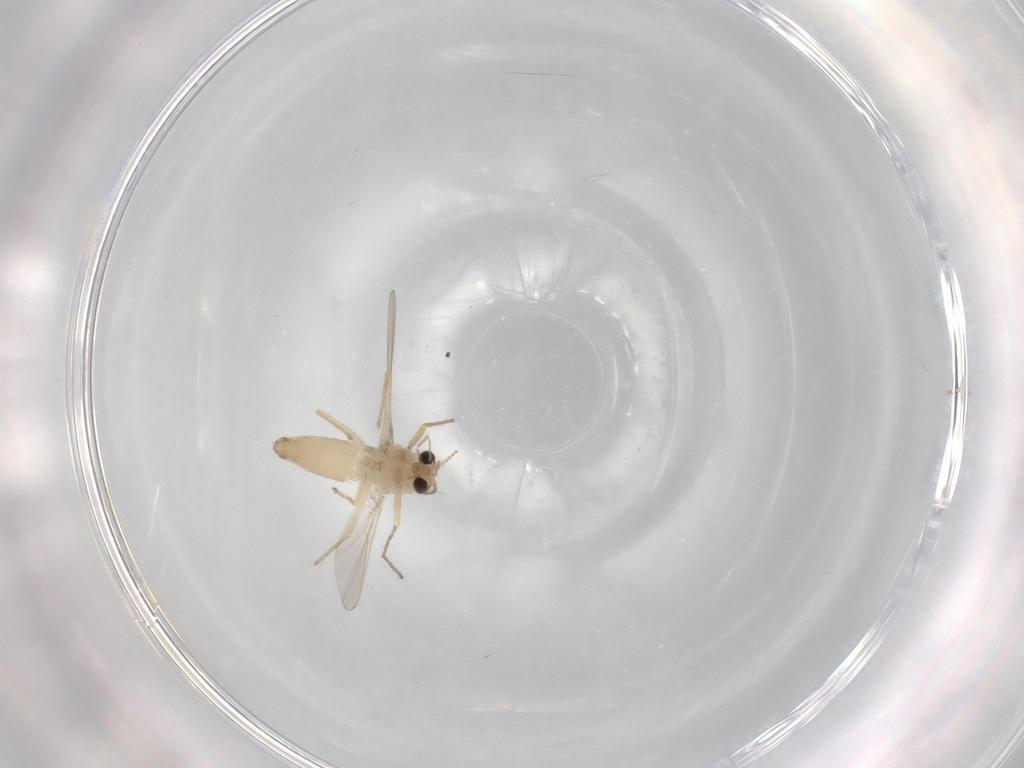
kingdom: Animalia
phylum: Arthropoda
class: Insecta
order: Diptera
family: Chironomidae
